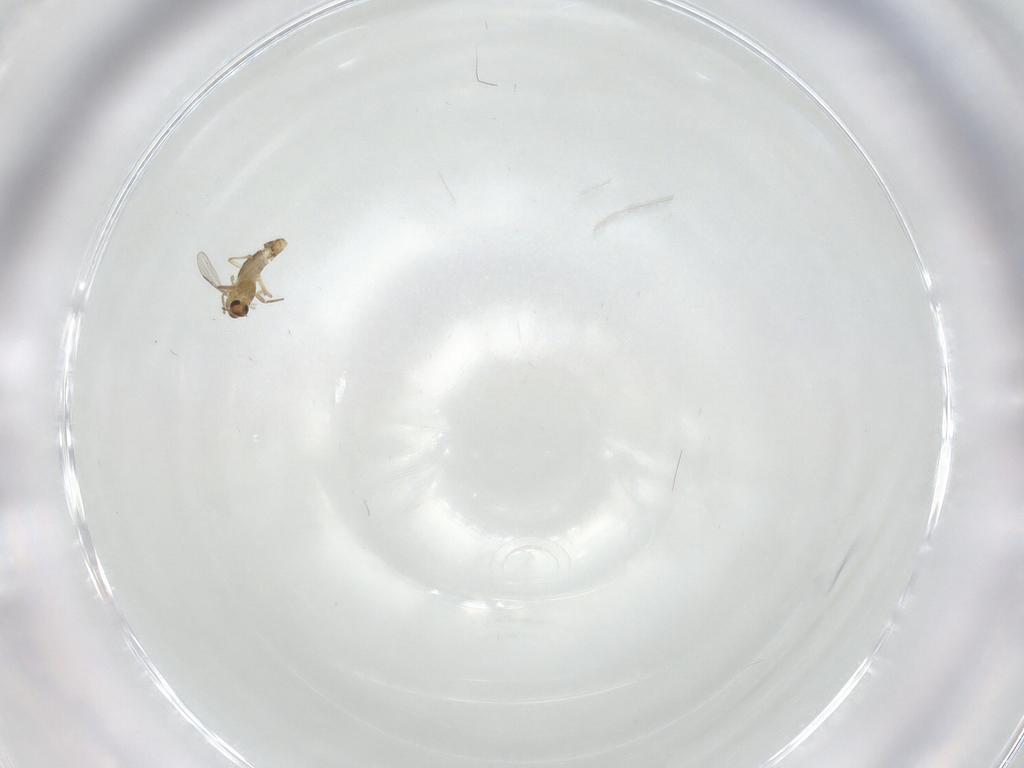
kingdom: Animalia
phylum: Arthropoda
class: Insecta
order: Diptera
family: Chironomidae
